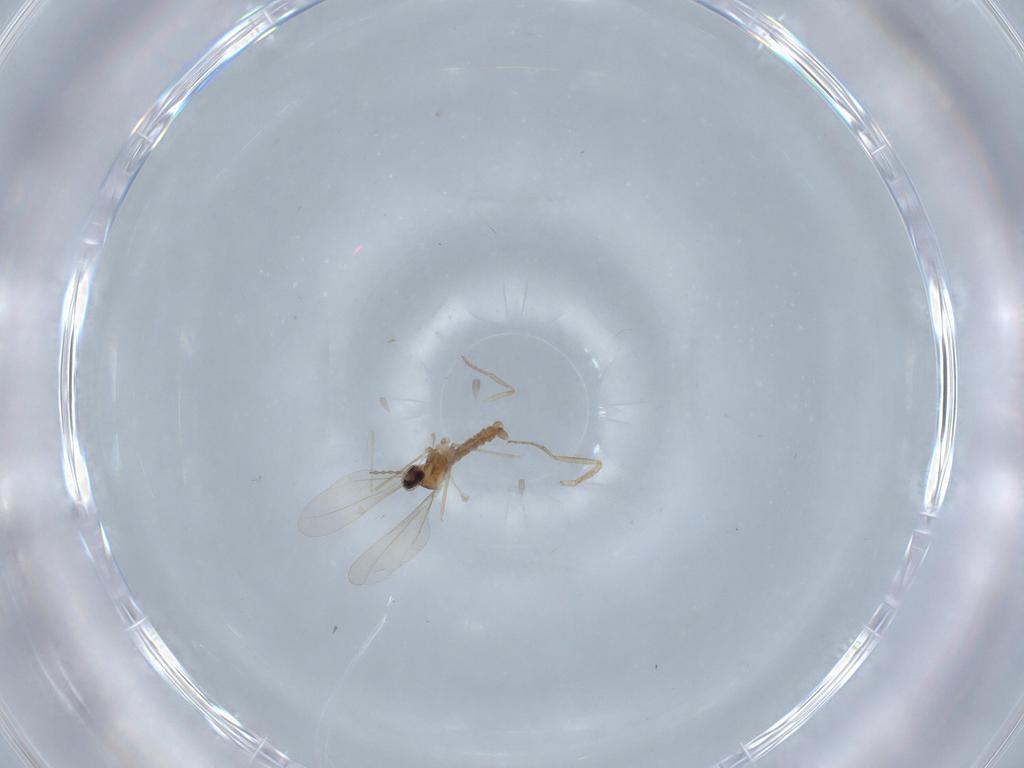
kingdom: Animalia
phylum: Arthropoda
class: Insecta
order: Diptera
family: Ceratopogonidae
